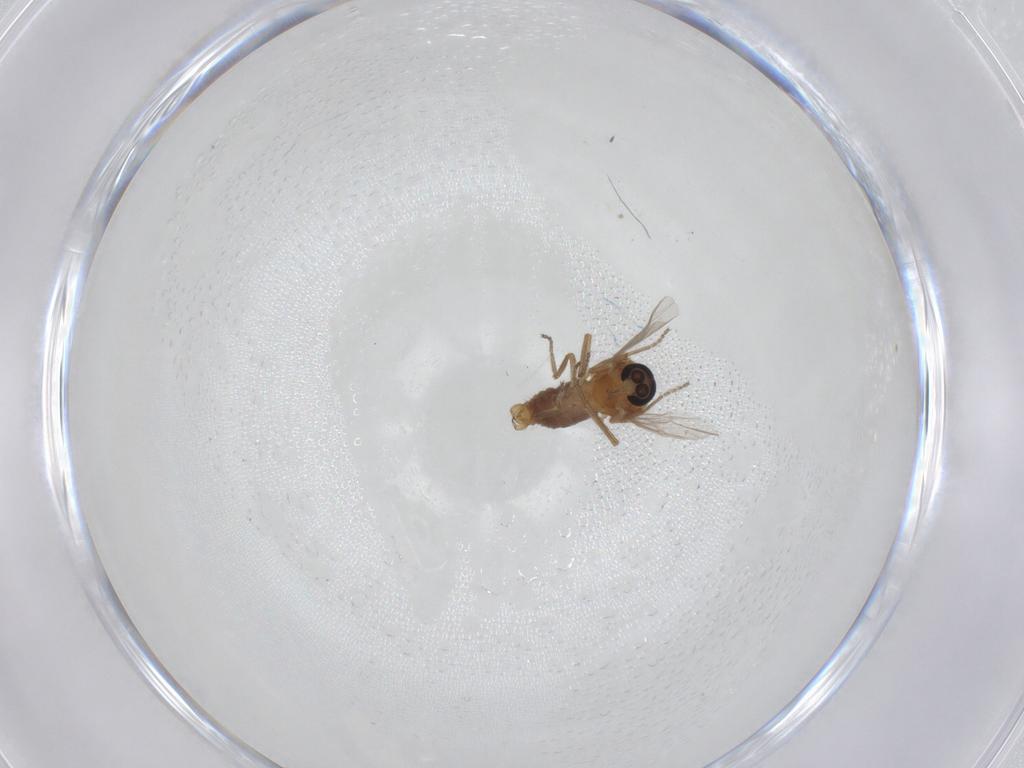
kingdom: Animalia
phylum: Arthropoda
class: Insecta
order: Diptera
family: Ceratopogonidae
